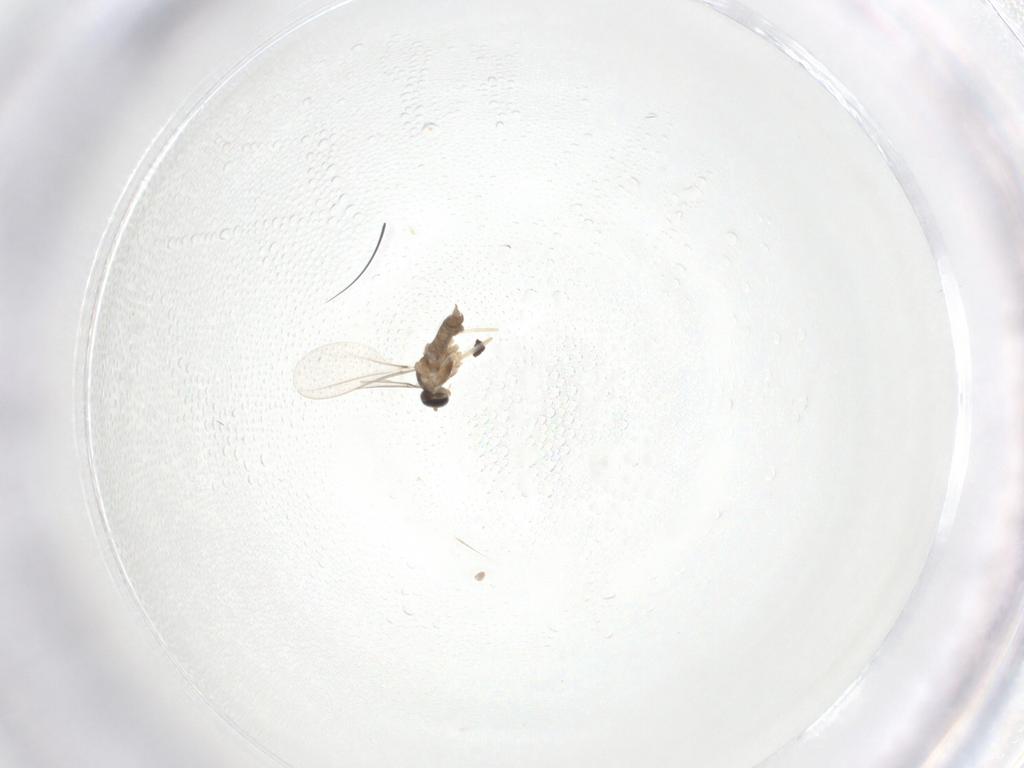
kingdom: Animalia
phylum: Arthropoda
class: Insecta
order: Diptera
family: Cecidomyiidae
